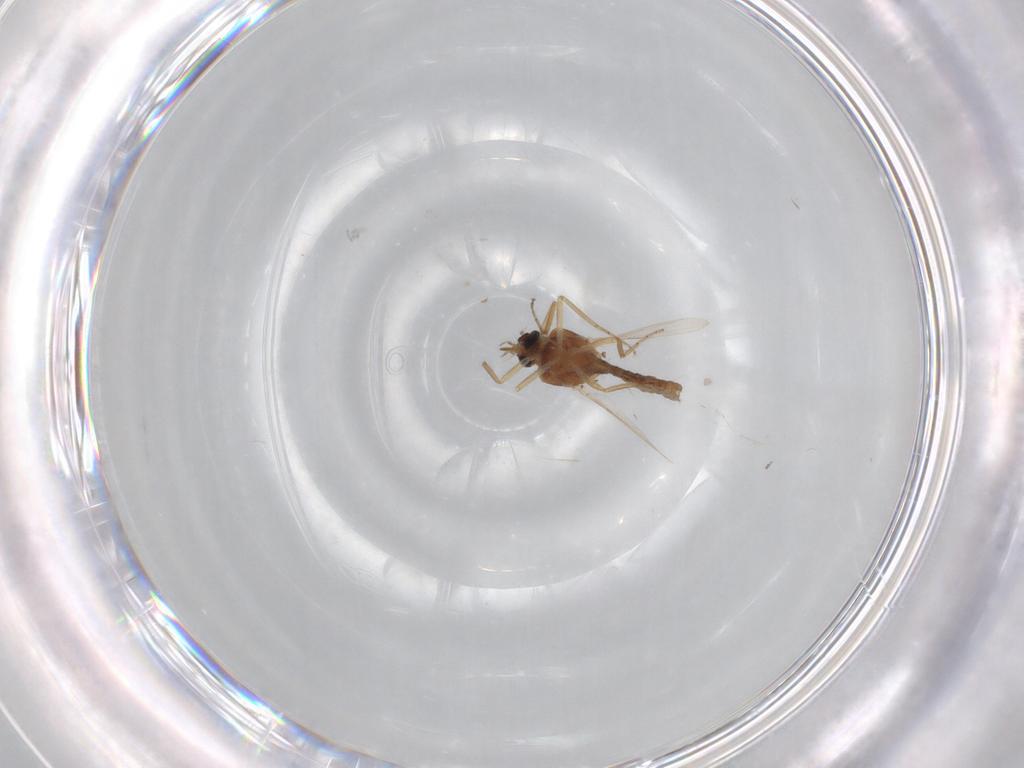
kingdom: Animalia
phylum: Arthropoda
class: Insecta
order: Diptera
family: Ceratopogonidae
